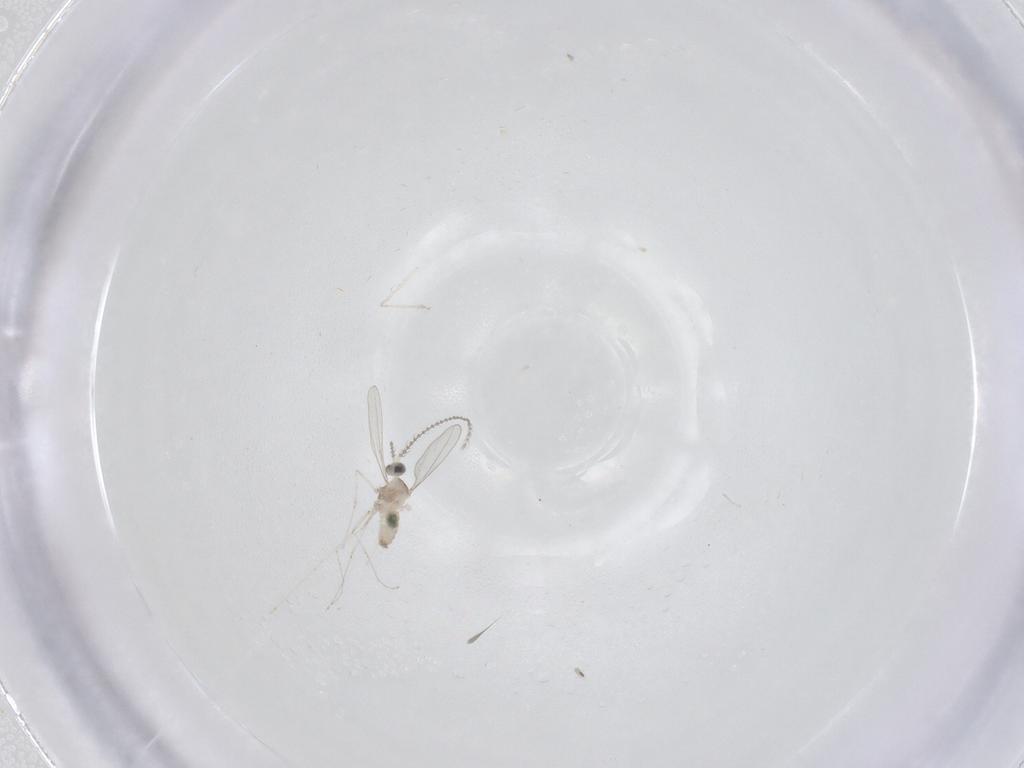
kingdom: Animalia
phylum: Arthropoda
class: Insecta
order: Diptera
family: Cecidomyiidae
